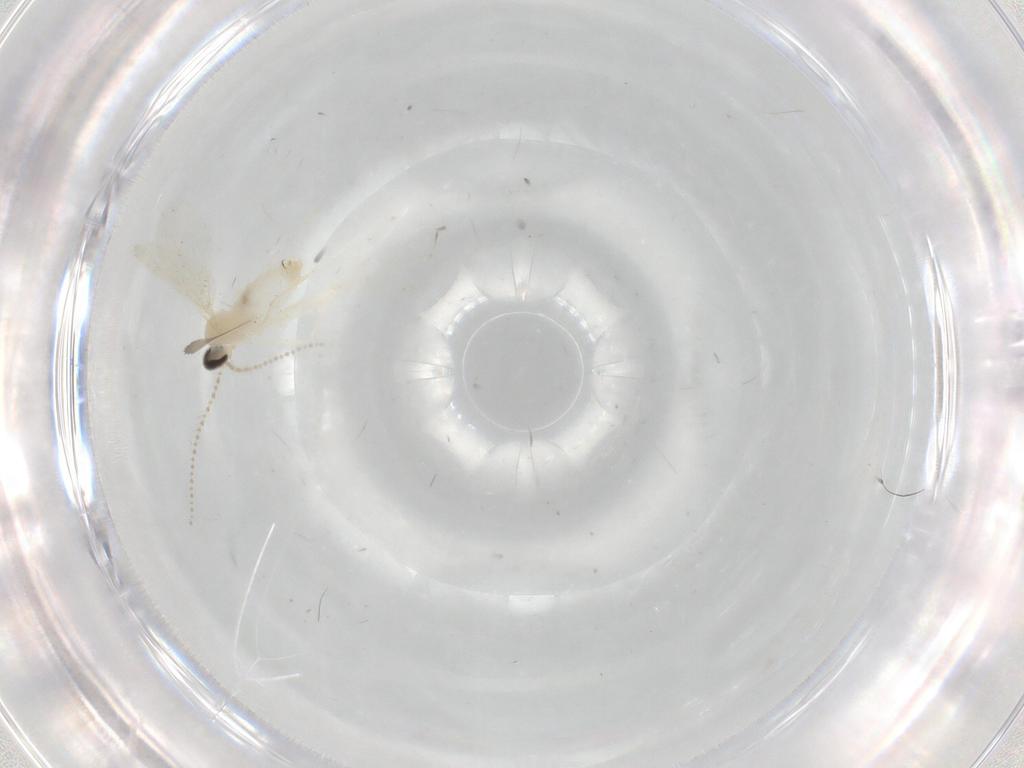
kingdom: Animalia
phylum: Arthropoda
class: Insecta
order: Diptera
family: Cecidomyiidae
